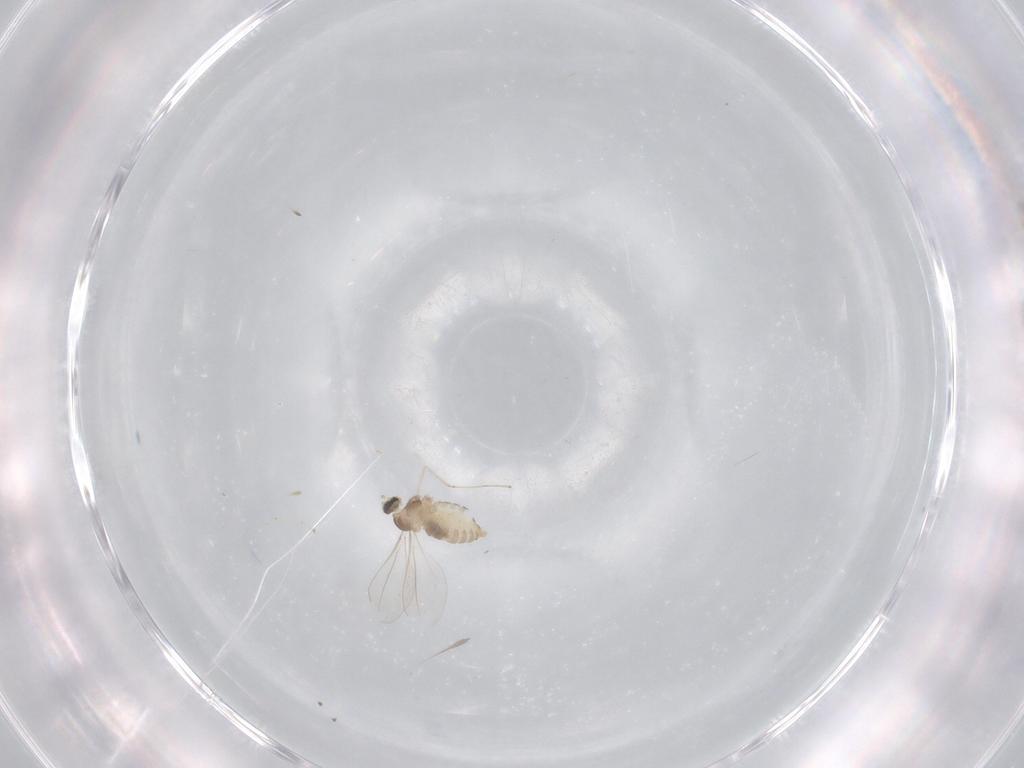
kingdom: Animalia
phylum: Arthropoda
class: Insecta
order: Diptera
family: Cecidomyiidae
